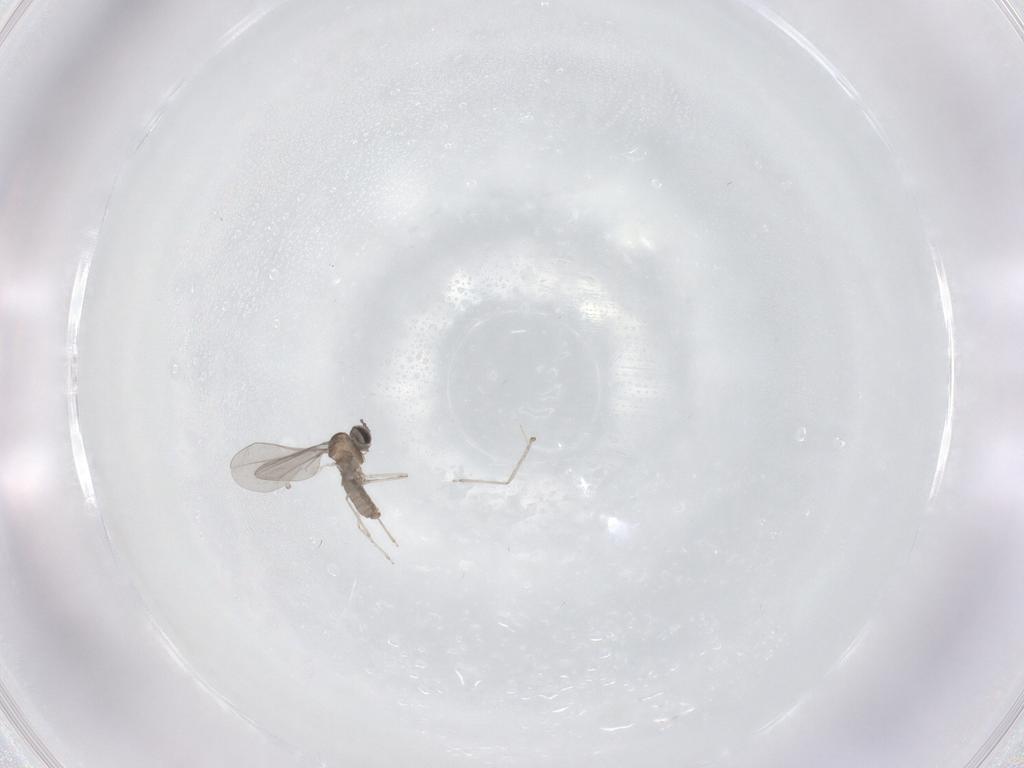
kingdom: Animalia
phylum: Arthropoda
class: Insecta
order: Diptera
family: Cecidomyiidae
